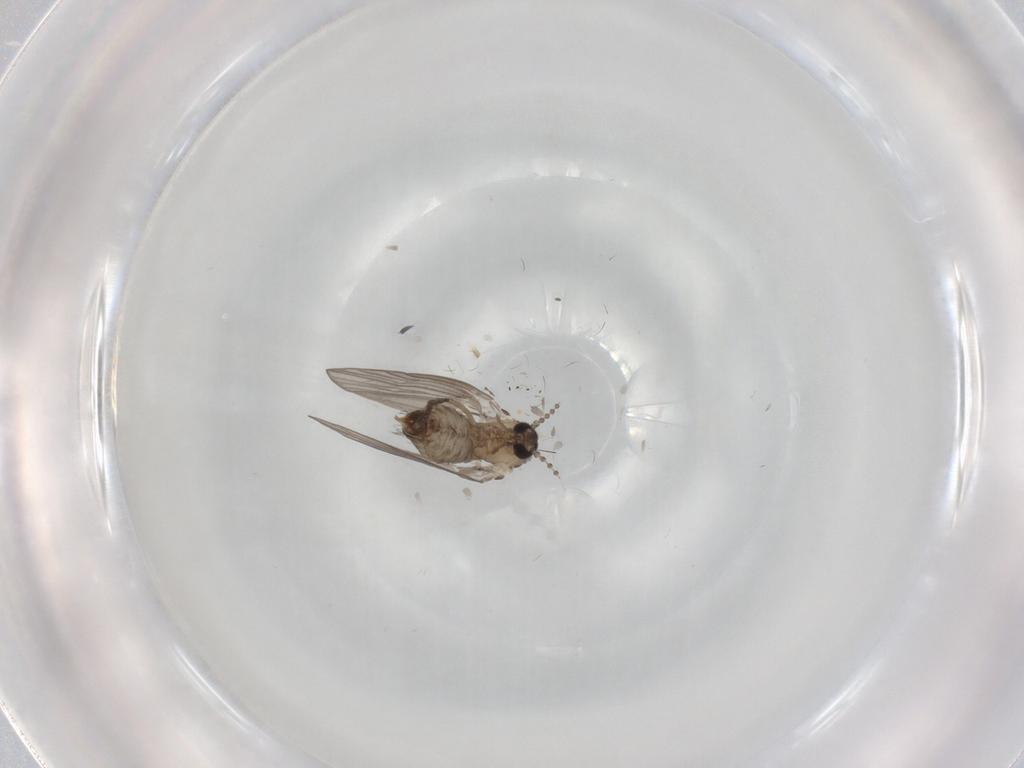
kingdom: Animalia
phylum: Arthropoda
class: Insecta
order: Diptera
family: Psychodidae
